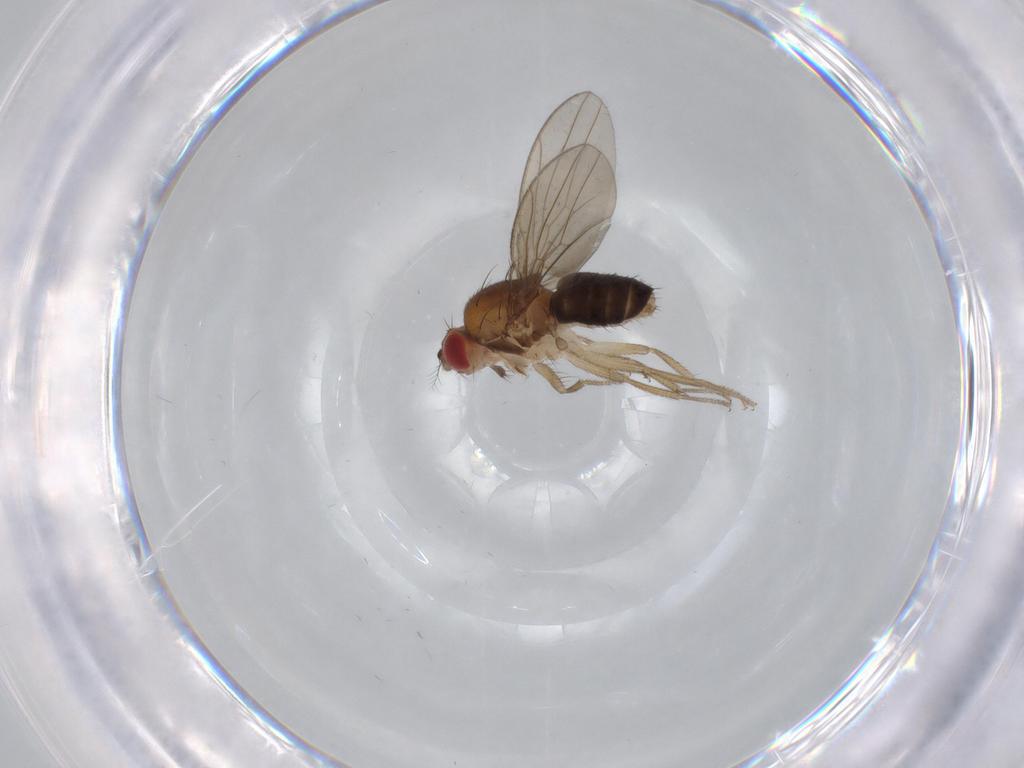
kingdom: Animalia
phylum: Arthropoda
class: Insecta
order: Diptera
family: Drosophilidae
